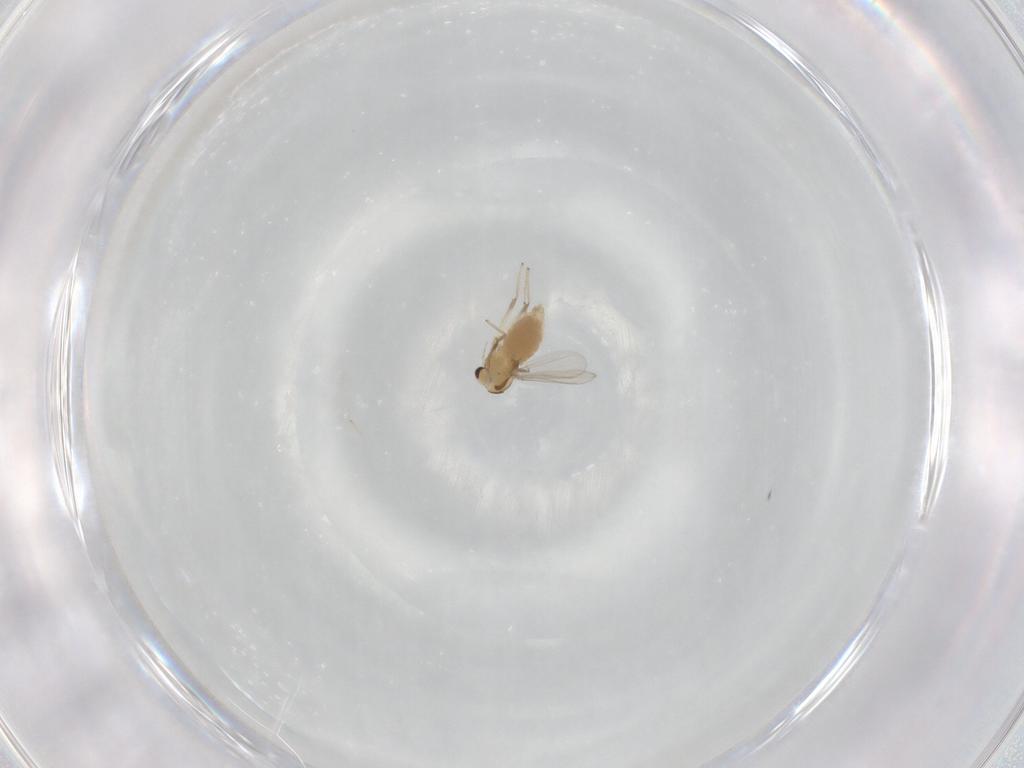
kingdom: Animalia
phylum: Arthropoda
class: Insecta
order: Diptera
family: Chironomidae
